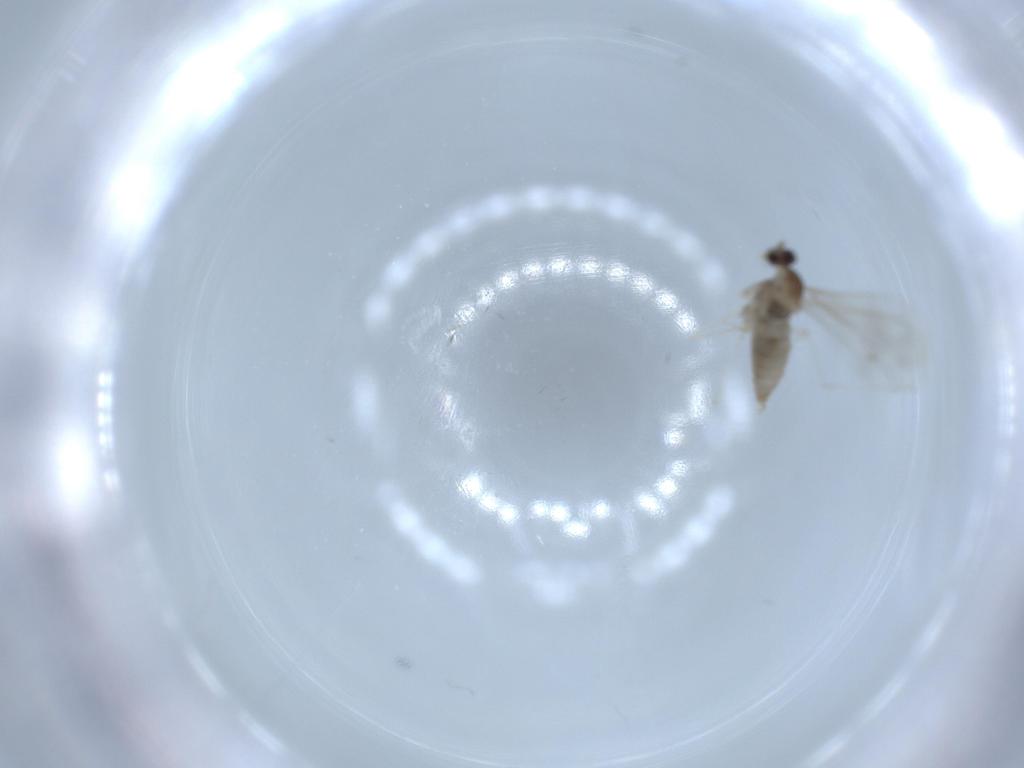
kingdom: Animalia
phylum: Arthropoda
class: Insecta
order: Diptera
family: Cecidomyiidae
